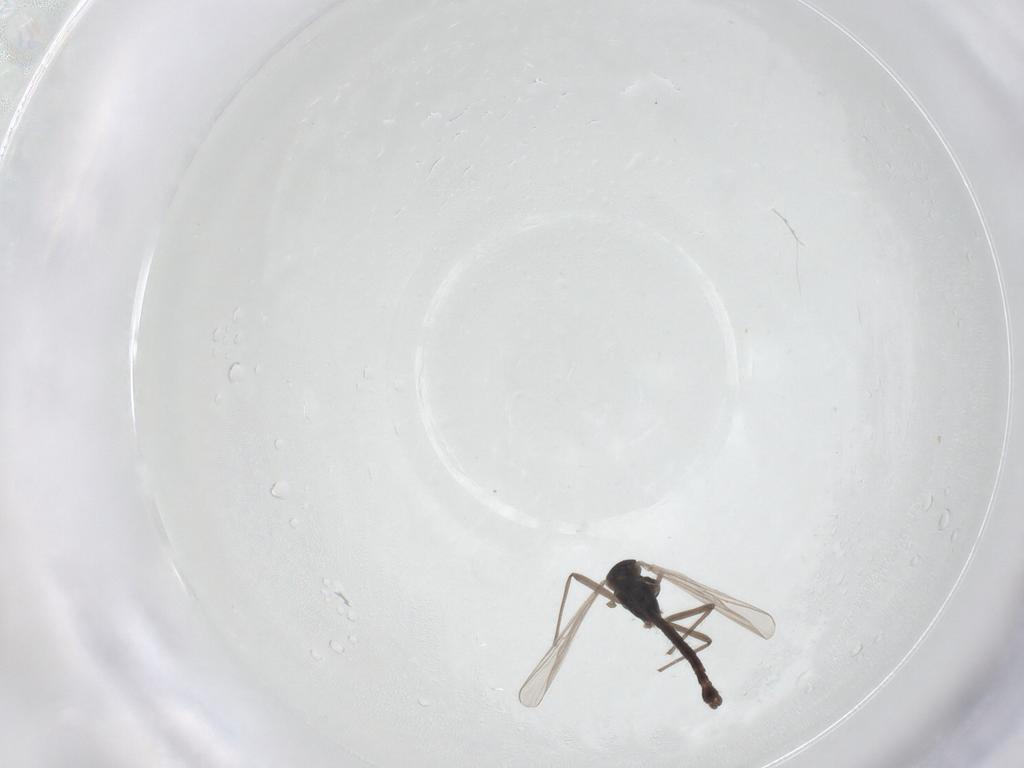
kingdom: Animalia
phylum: Arthropoda
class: Insecta
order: Diptera
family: Chironomidae
